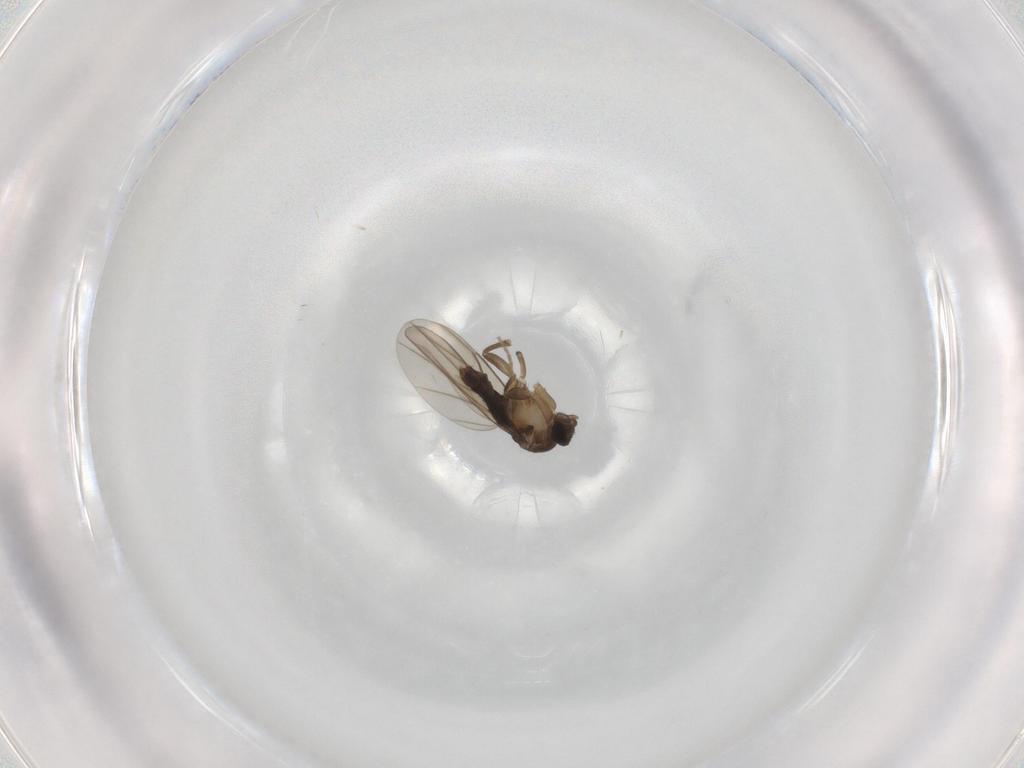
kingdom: Animalia
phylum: Arthropoda
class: Insecta
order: Diptera
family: Phoridae
